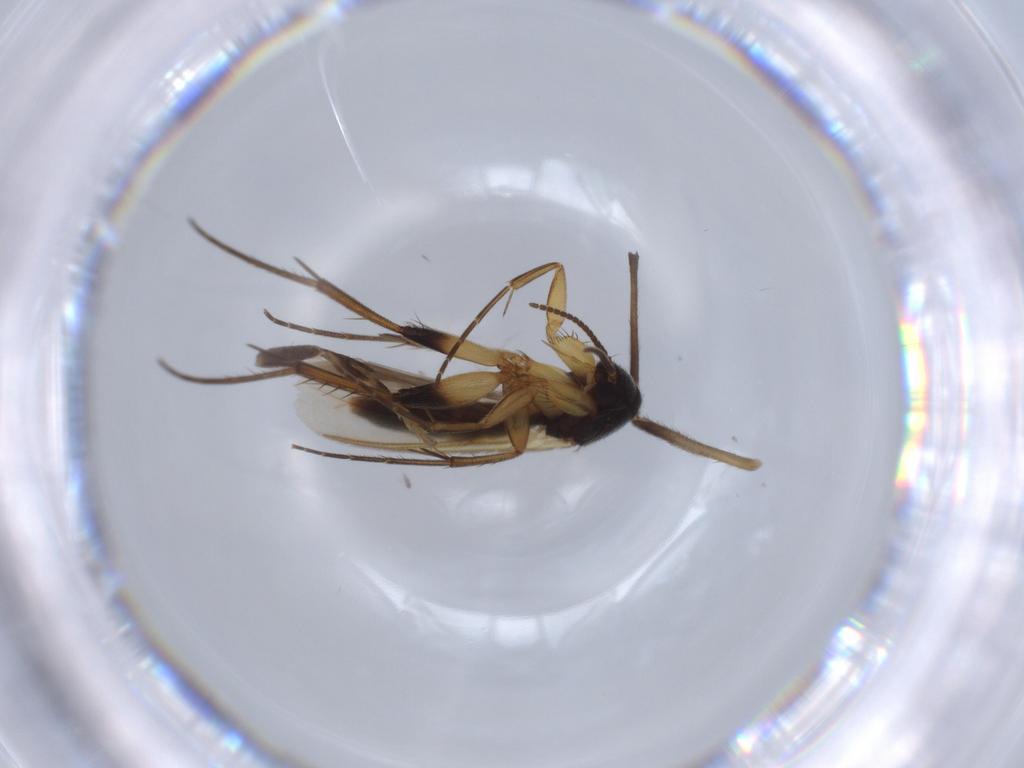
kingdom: Animalia
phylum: Arthropoda
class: Insecta
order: Diptera
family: Chironomidae
